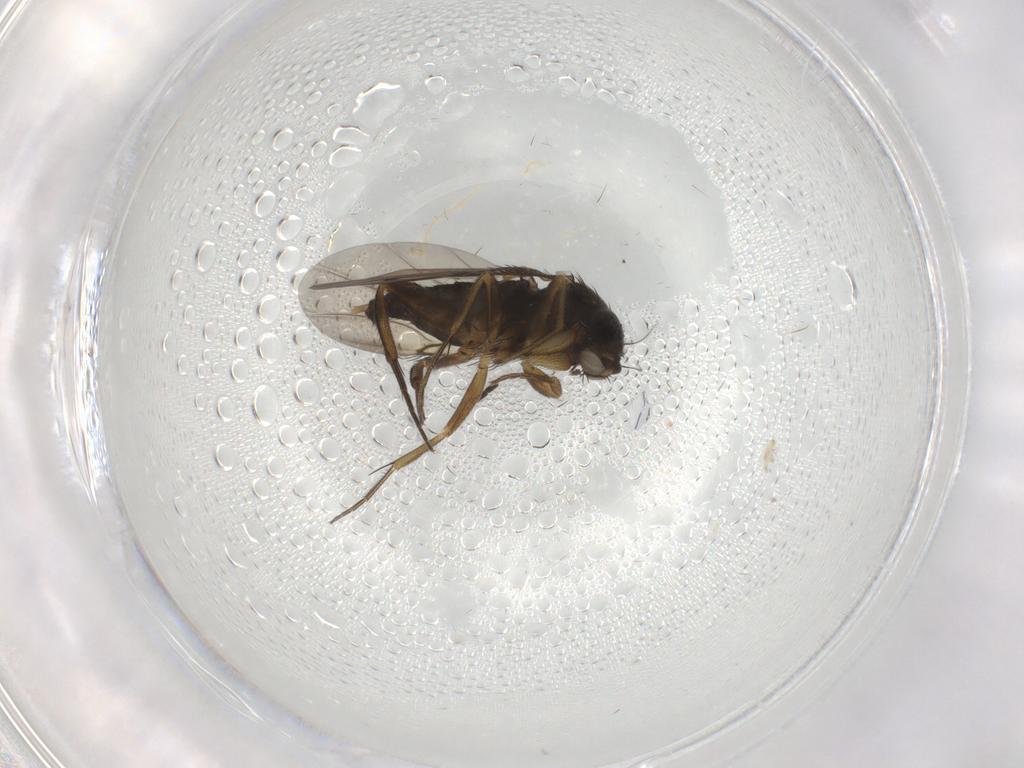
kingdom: Animalia
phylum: Arthropoda
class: Insecta
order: Diptera
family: Phoridae
